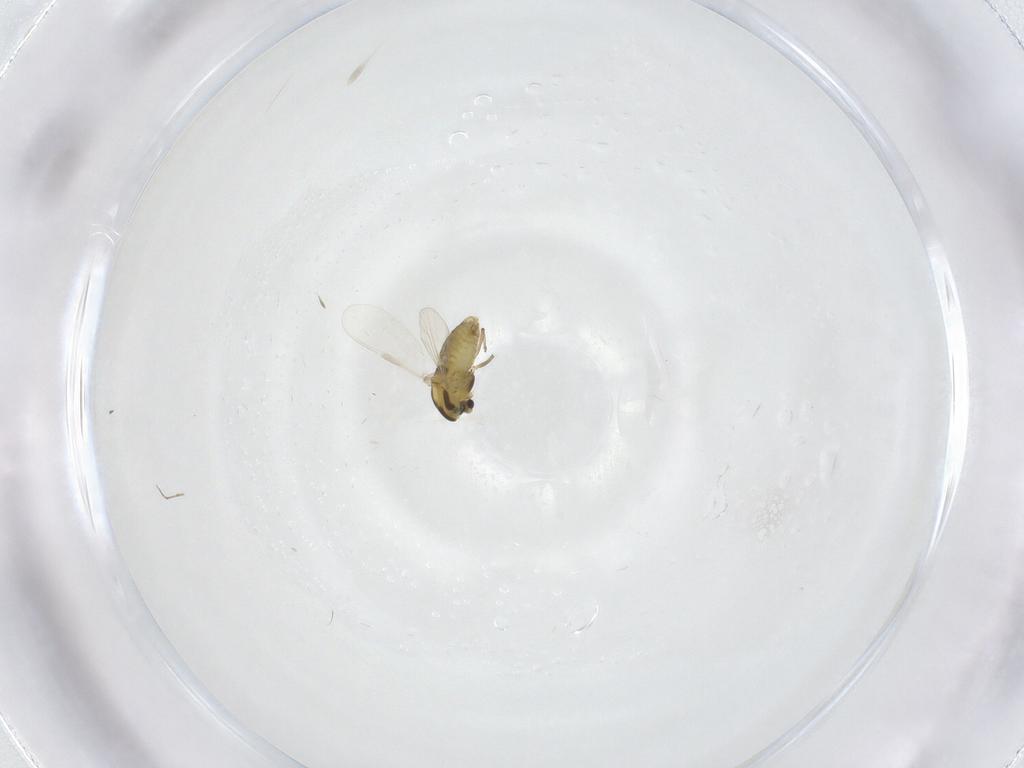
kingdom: Animalia
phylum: Arthropoda
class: Insecta
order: Diptera
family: Chironomidae
